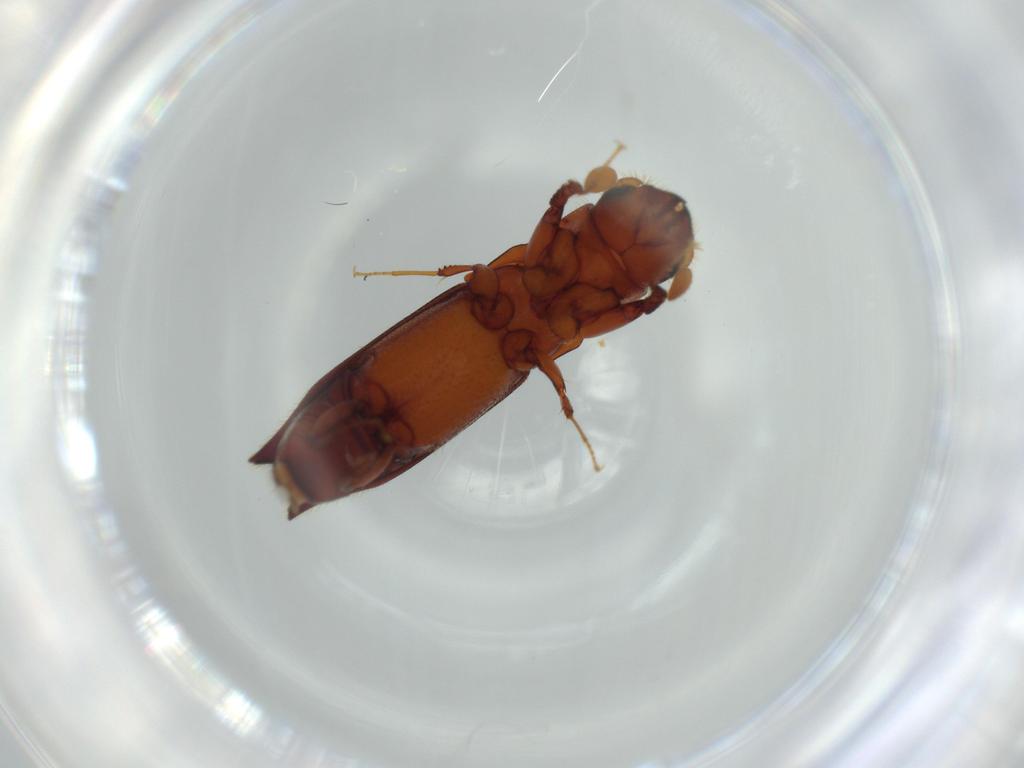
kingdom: Animalia
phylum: Arthropoda
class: Insecta
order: Coleoptera
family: Curculionidae
